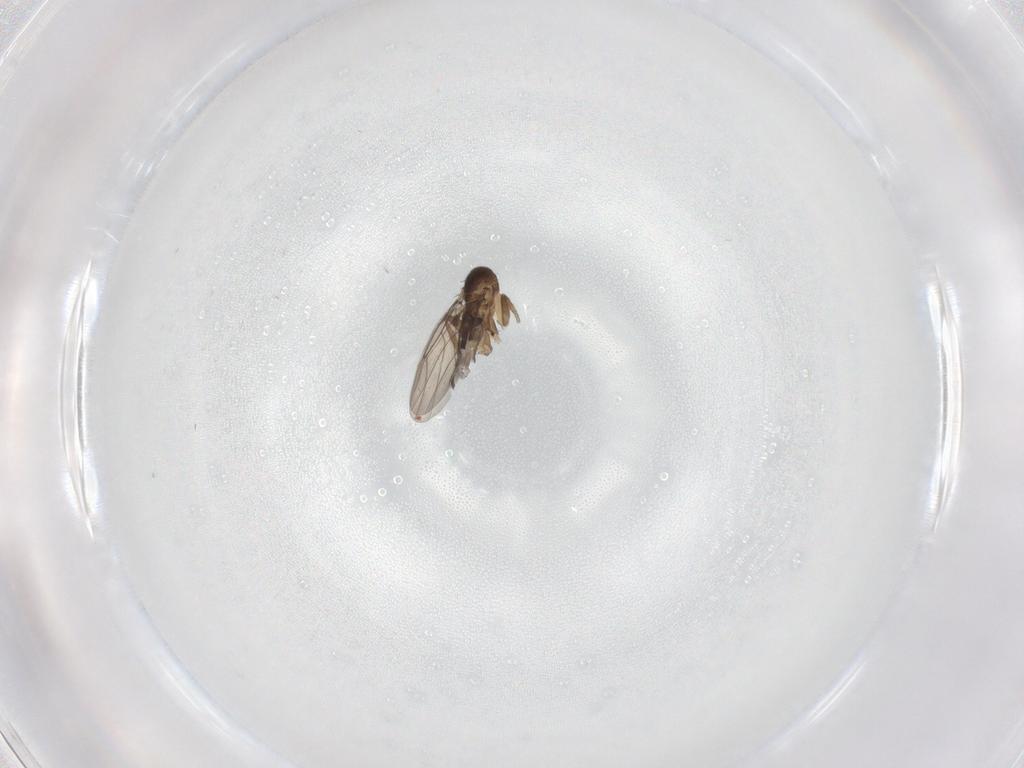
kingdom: Animalia
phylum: Arthropoda
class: Insecta
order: Diptera
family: Phoridae
